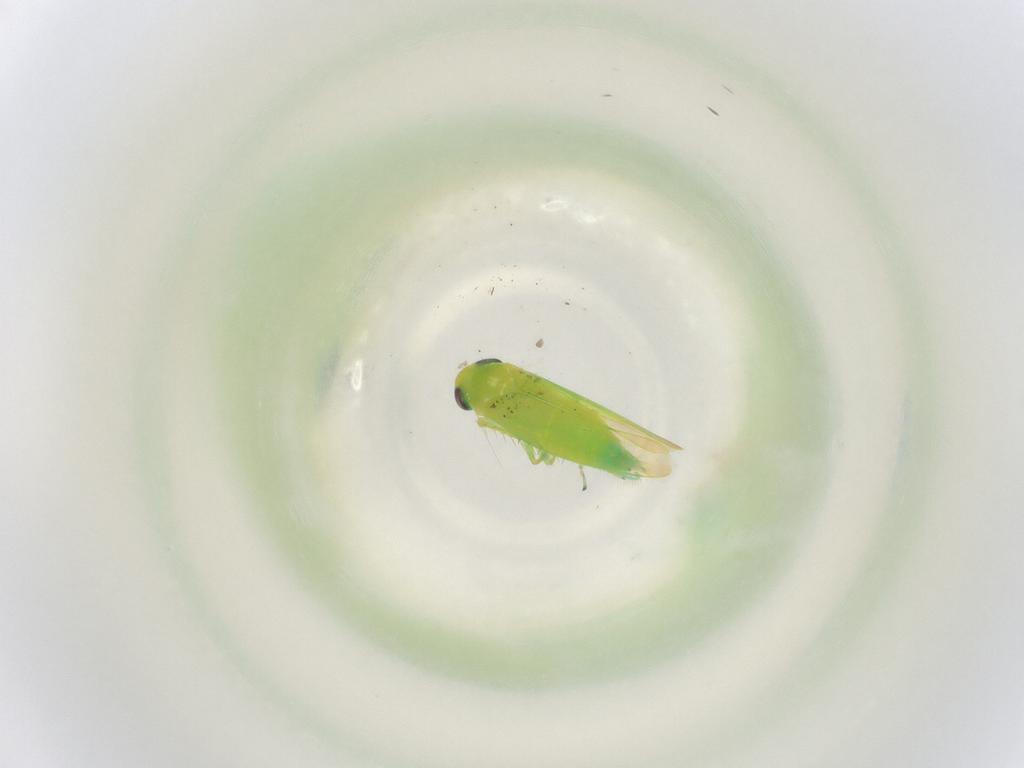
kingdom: Animalia
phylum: Arthropoda
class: Insecta
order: Hemiptera
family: Cicadellidae
